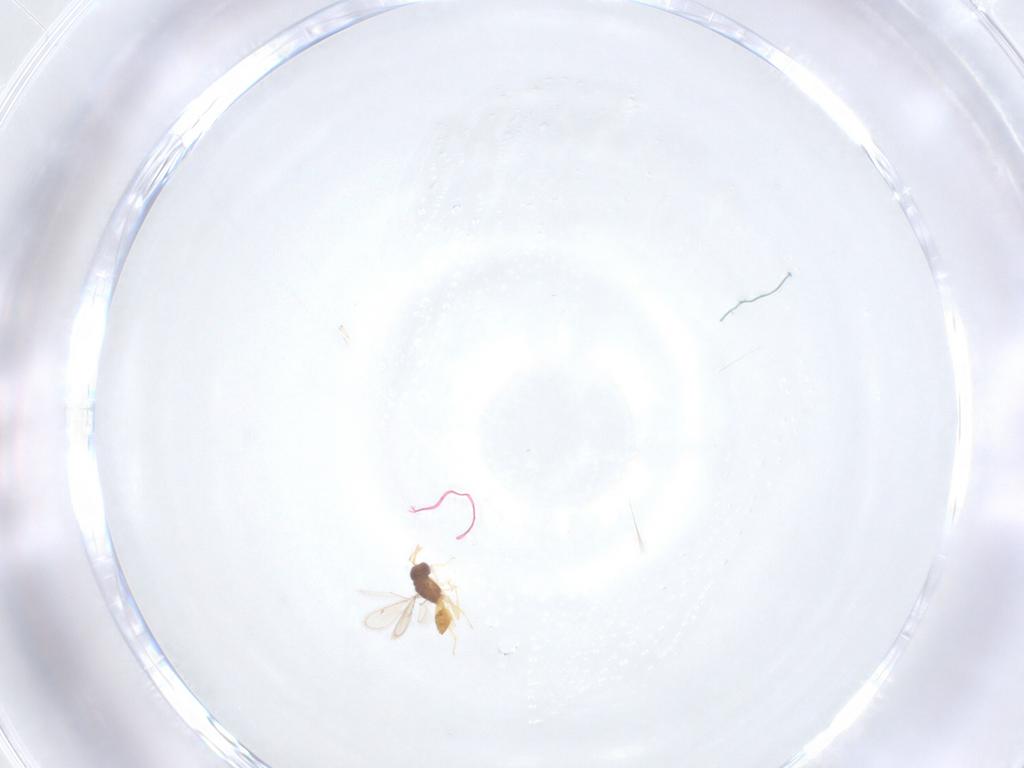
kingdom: Animalia
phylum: Arthropoda
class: Insecta
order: Hymenoptera
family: Eulophidae
